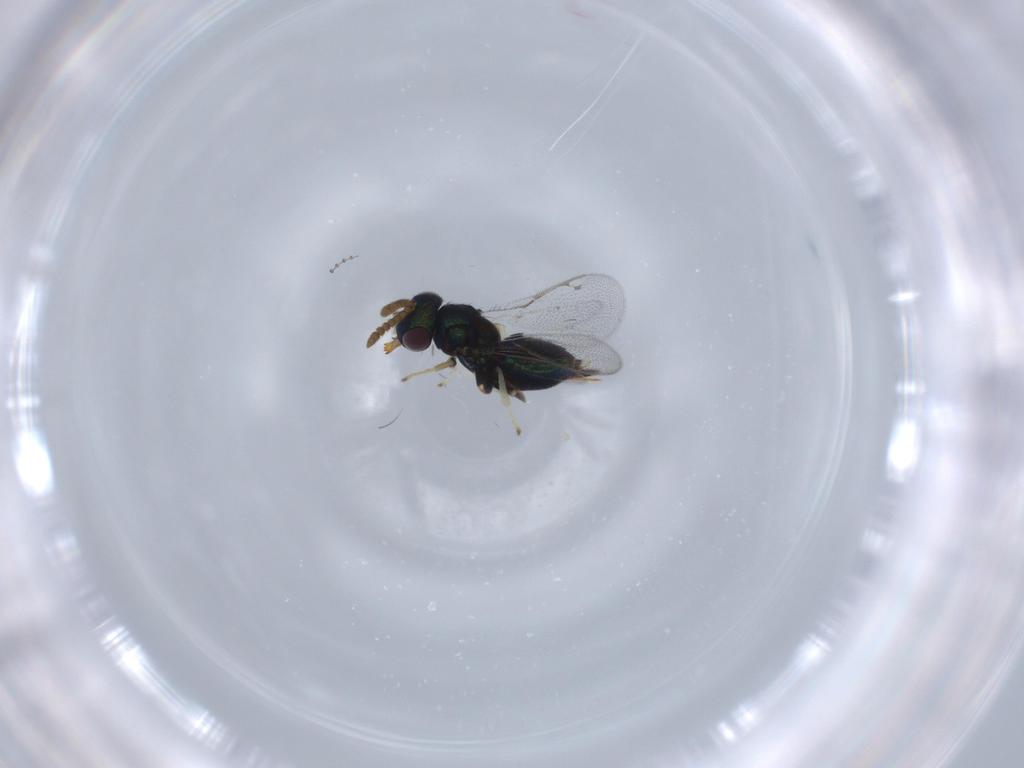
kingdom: Animalia
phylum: Arthropoda
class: Insecta
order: Hymenoptera
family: Pirenidae
